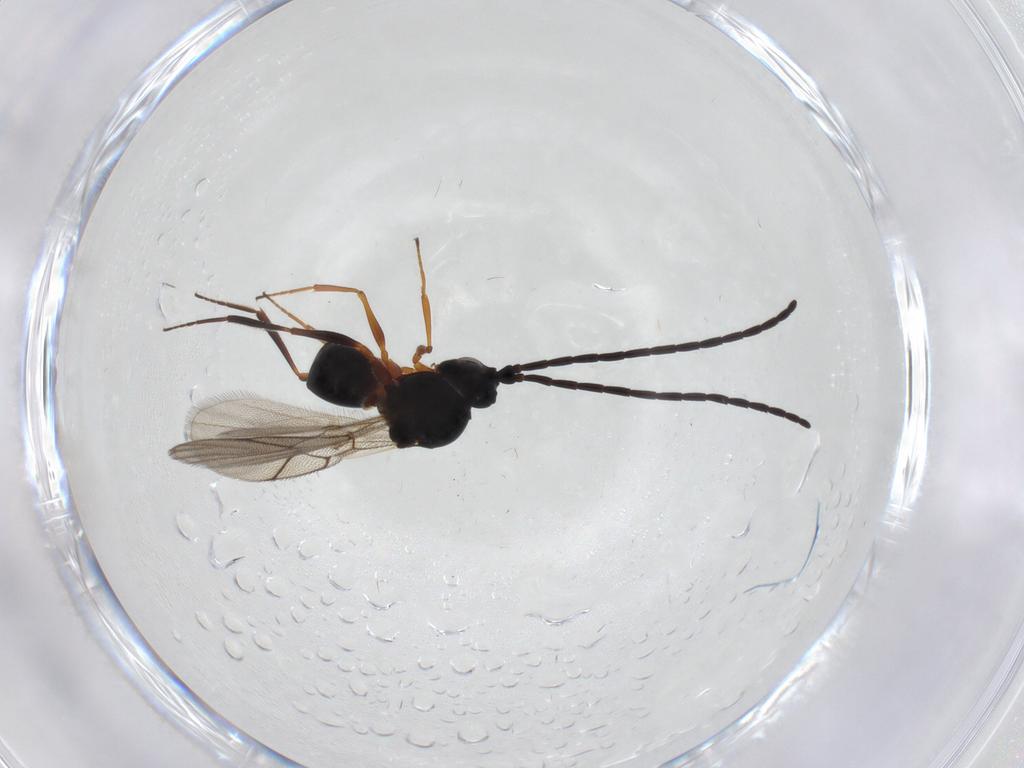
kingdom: Animalia
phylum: Arthropoda
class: Insecta
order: Hymenoptera
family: Figitidae
